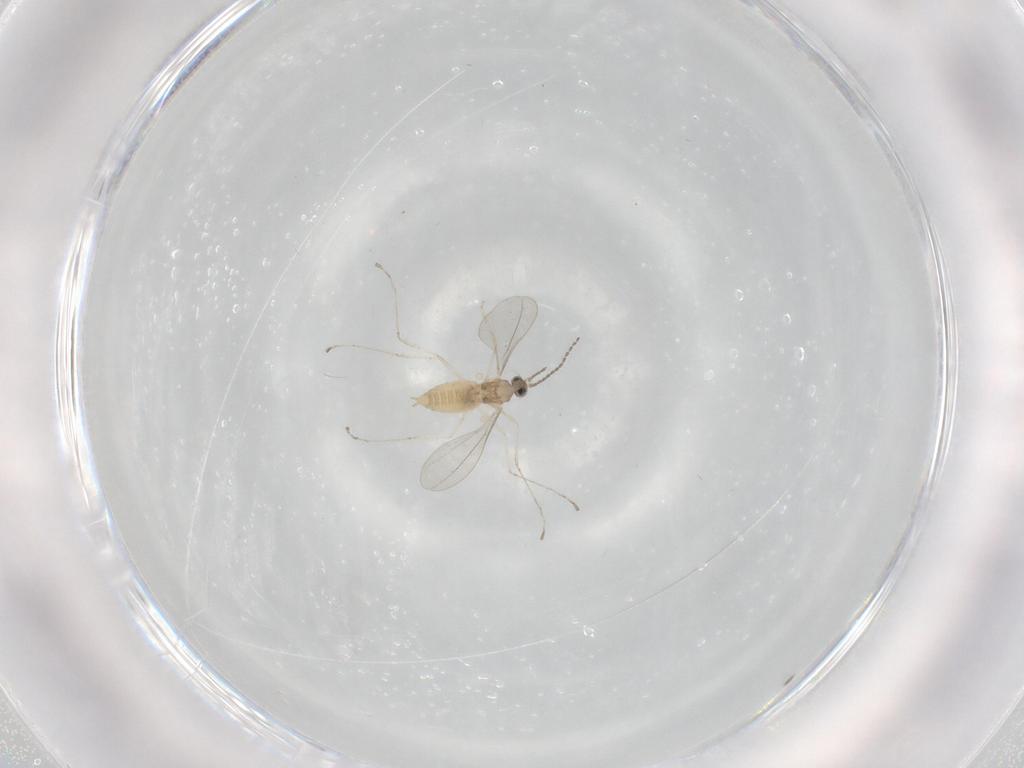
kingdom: Animalia
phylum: Arthropoda
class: Insecta
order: Diptera
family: Cecidomyiidae
